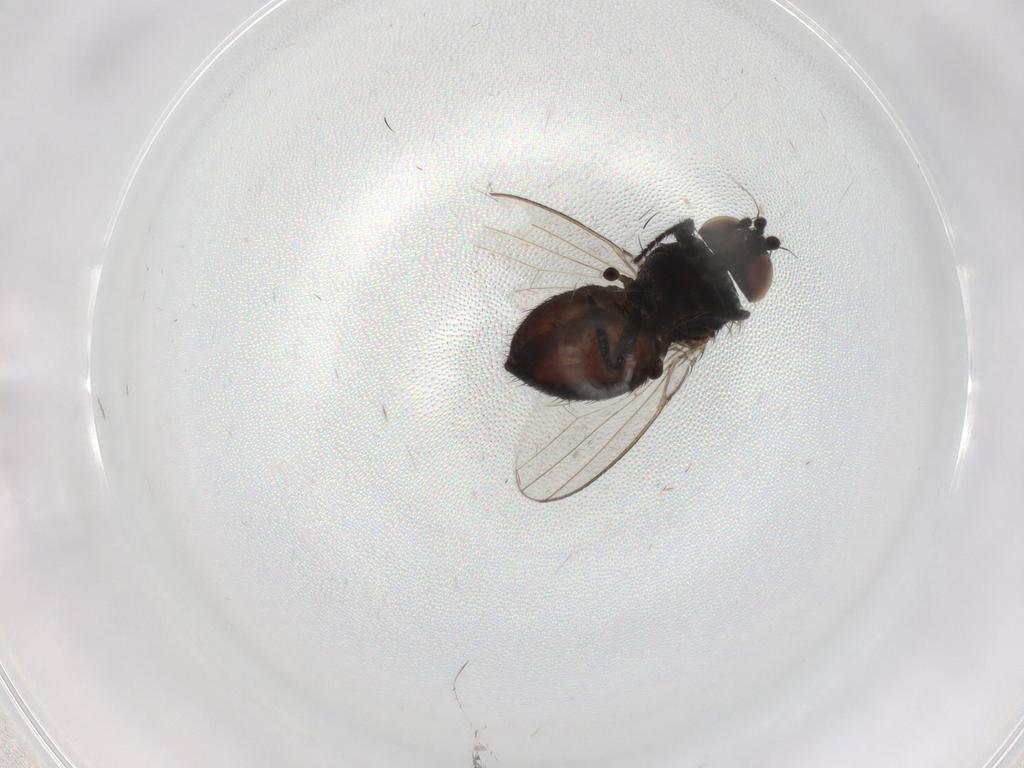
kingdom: Animalia
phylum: Arthropoda
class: Insecta
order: Diptera
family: Milichiidae
